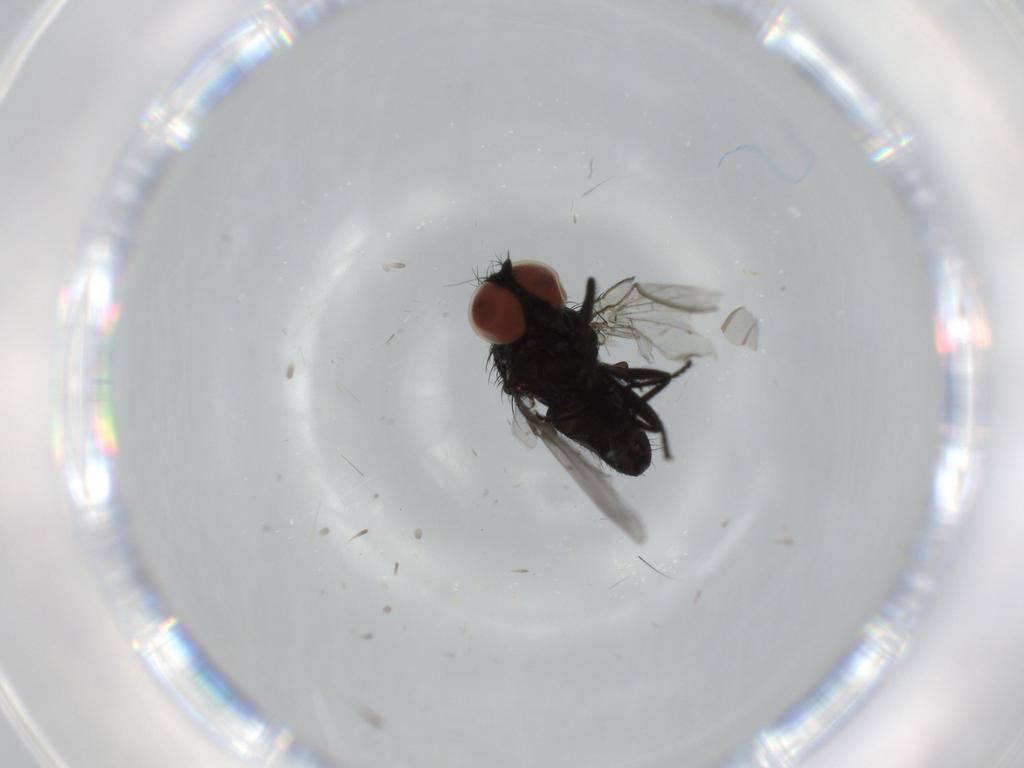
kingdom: Animalia
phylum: Arthropoda
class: Insecta
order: Diptera
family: Sciaridae
